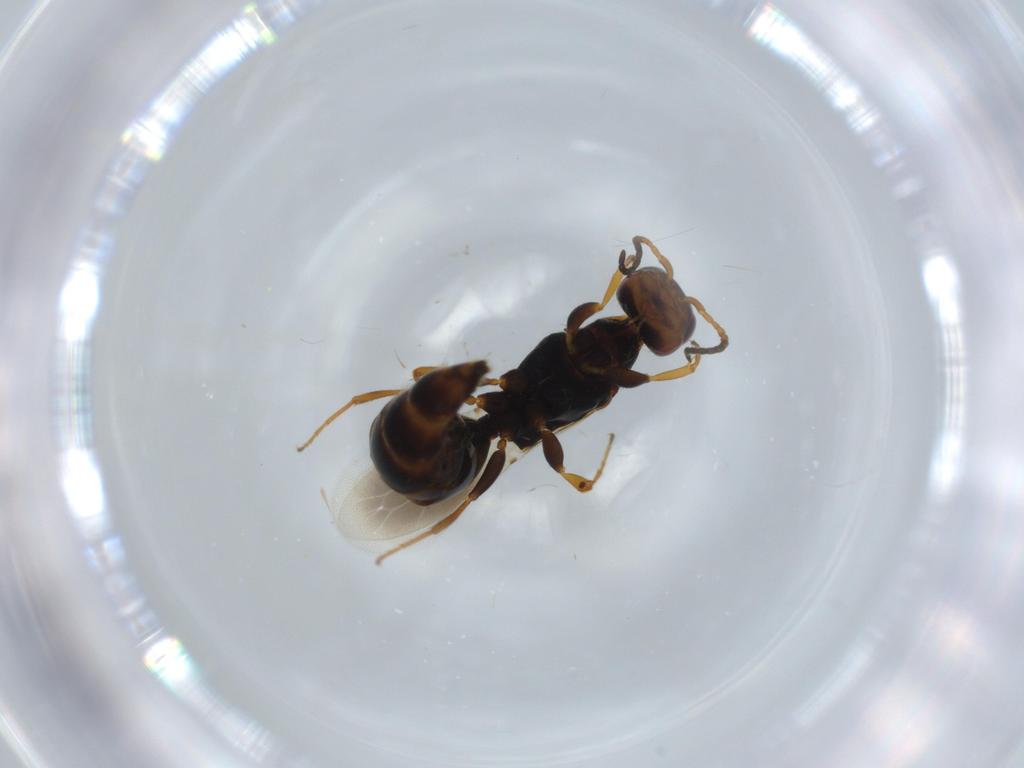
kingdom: Animalia
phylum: Arthropoda
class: Insecta
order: Hymenoptera
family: Bethylidae
